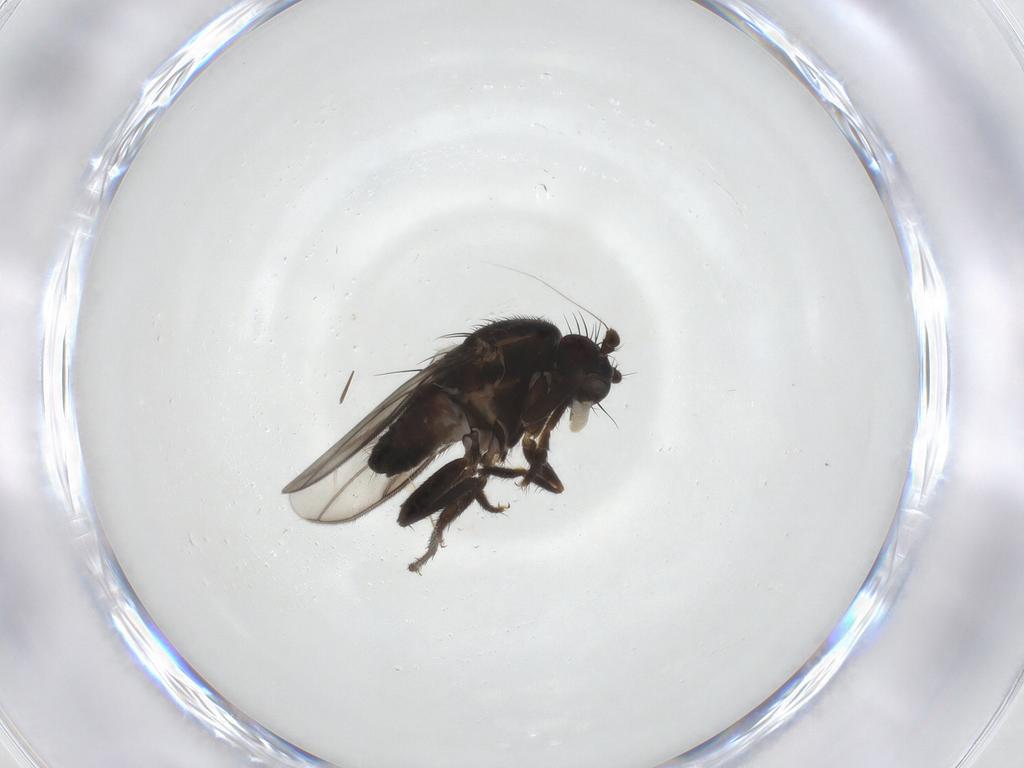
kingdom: Animalia
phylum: Arthropoda
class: Insecta
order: Diptera
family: Sphaeroceridae
